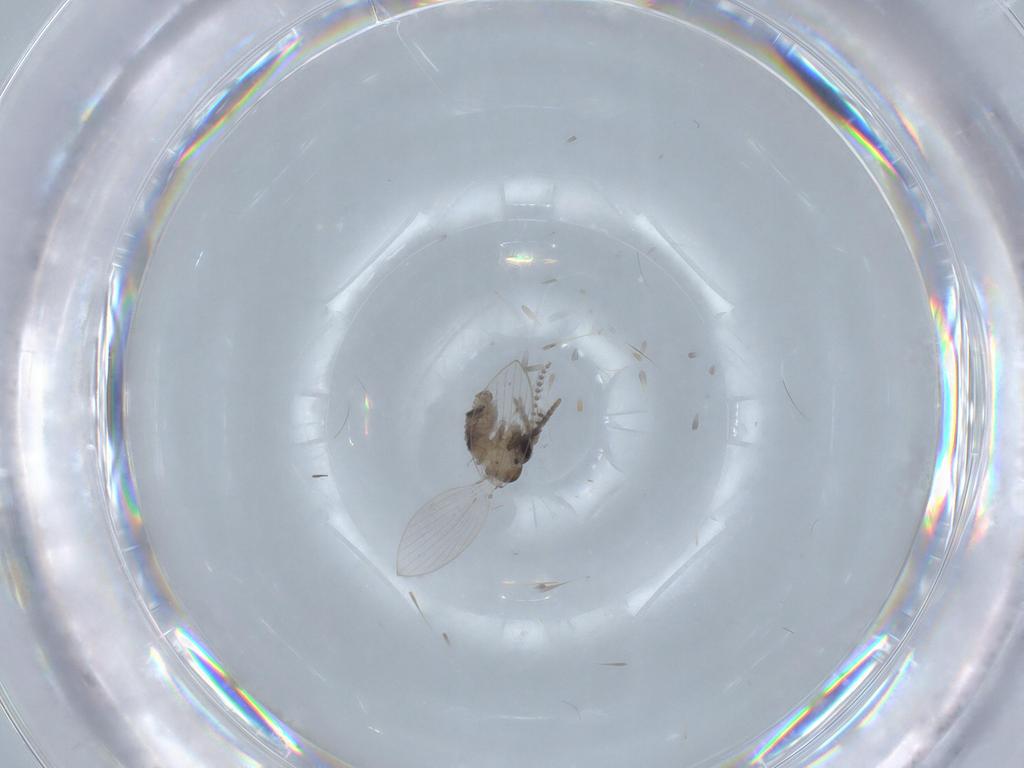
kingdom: Animalia
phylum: Arthropoda
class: Insecta
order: Diptera
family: Psychodidae
